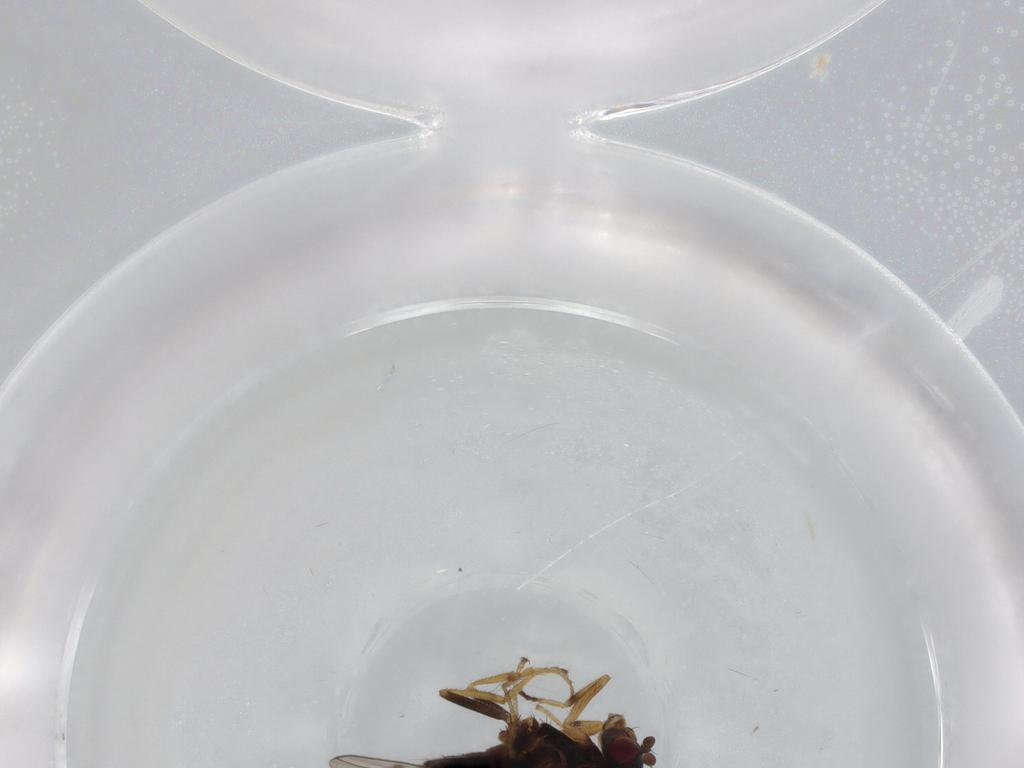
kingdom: Animalia
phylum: Arthropoda
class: Insecta
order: Diptera
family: Sphaeroceridae
